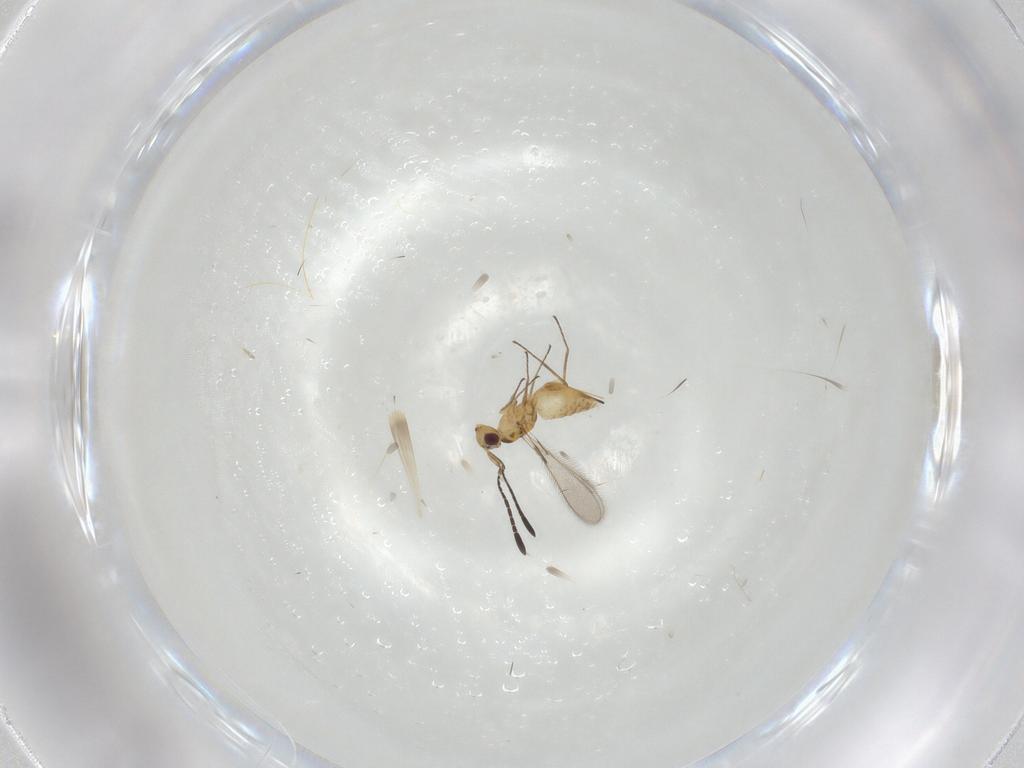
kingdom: Animalia
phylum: Arthropoda
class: Insecta
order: Hymenoptera
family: Mymaridae
